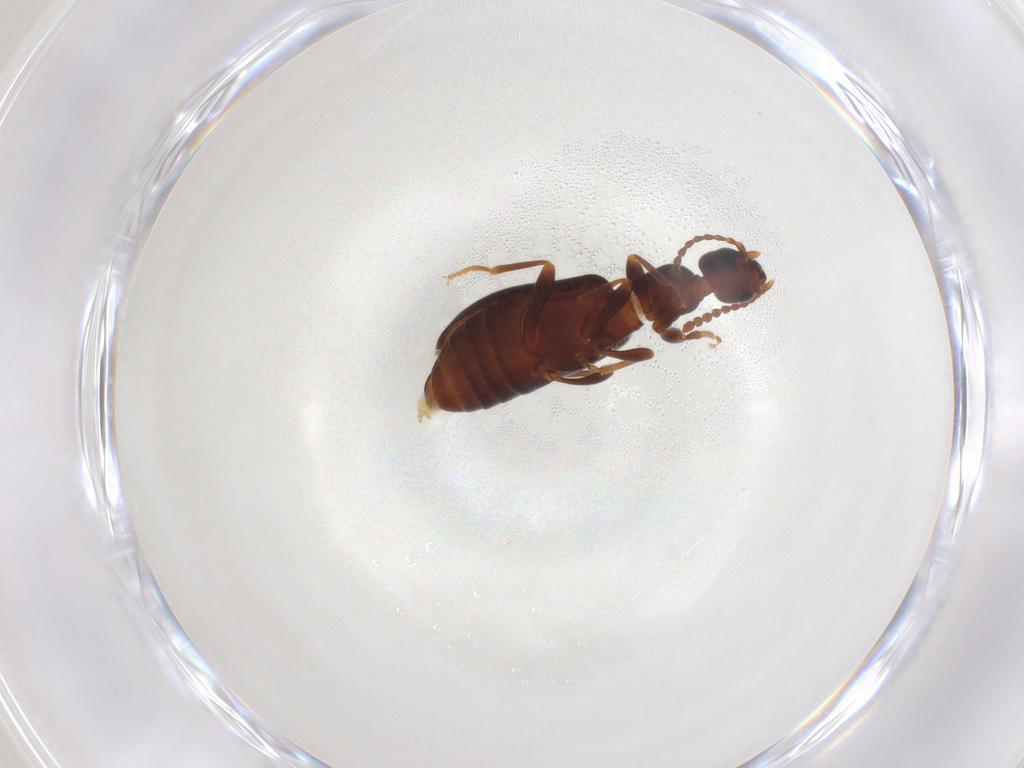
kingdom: Animalia
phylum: Arthropoda
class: Insecta
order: Coleoptera
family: Anthicidae
